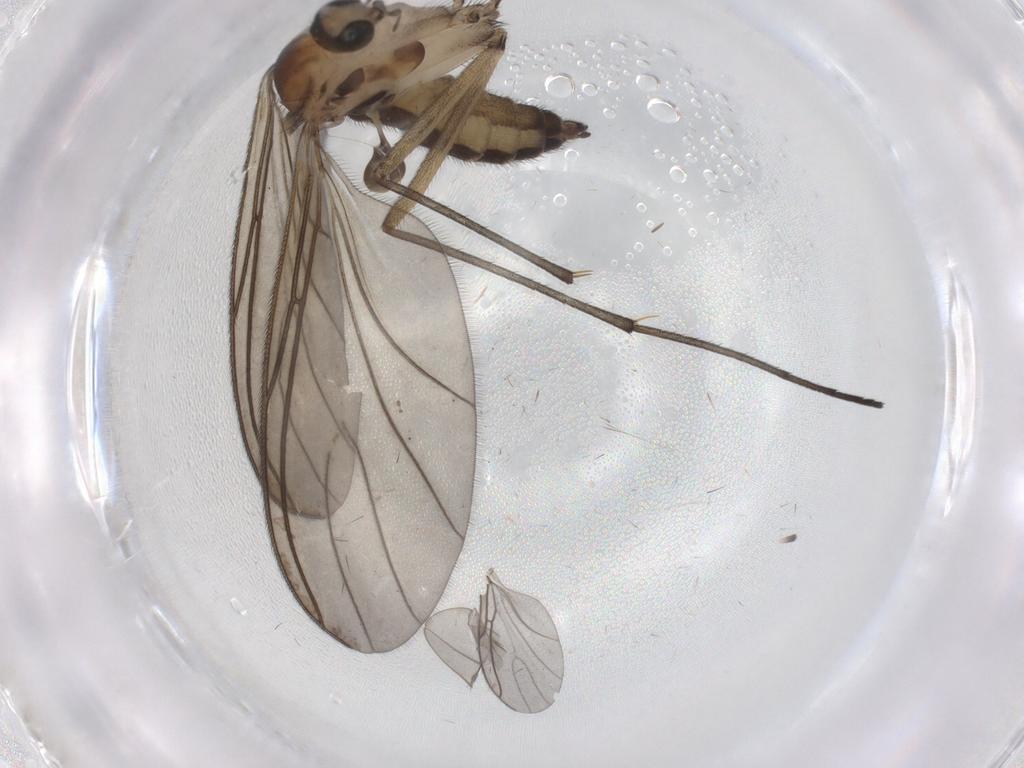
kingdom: Animalia
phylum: Arthropoda
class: Insecta
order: Diptera
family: Sciaridae
